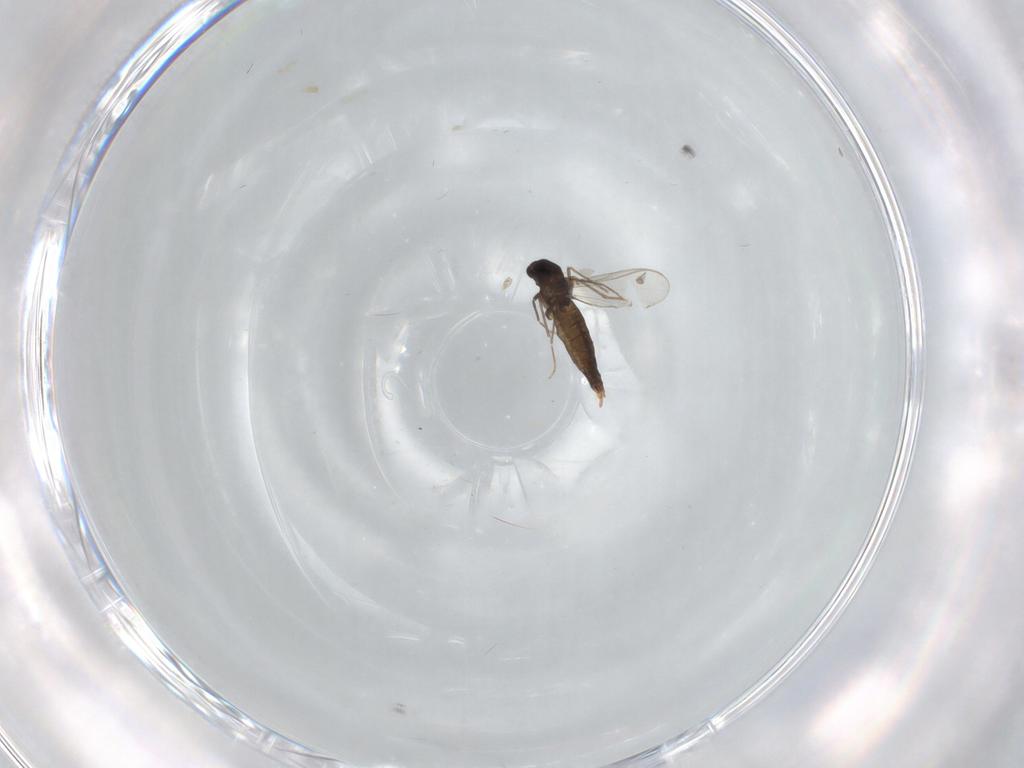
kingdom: Animalia
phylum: Arthropoda
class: Insecta
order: Diptera
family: Chironomidae
